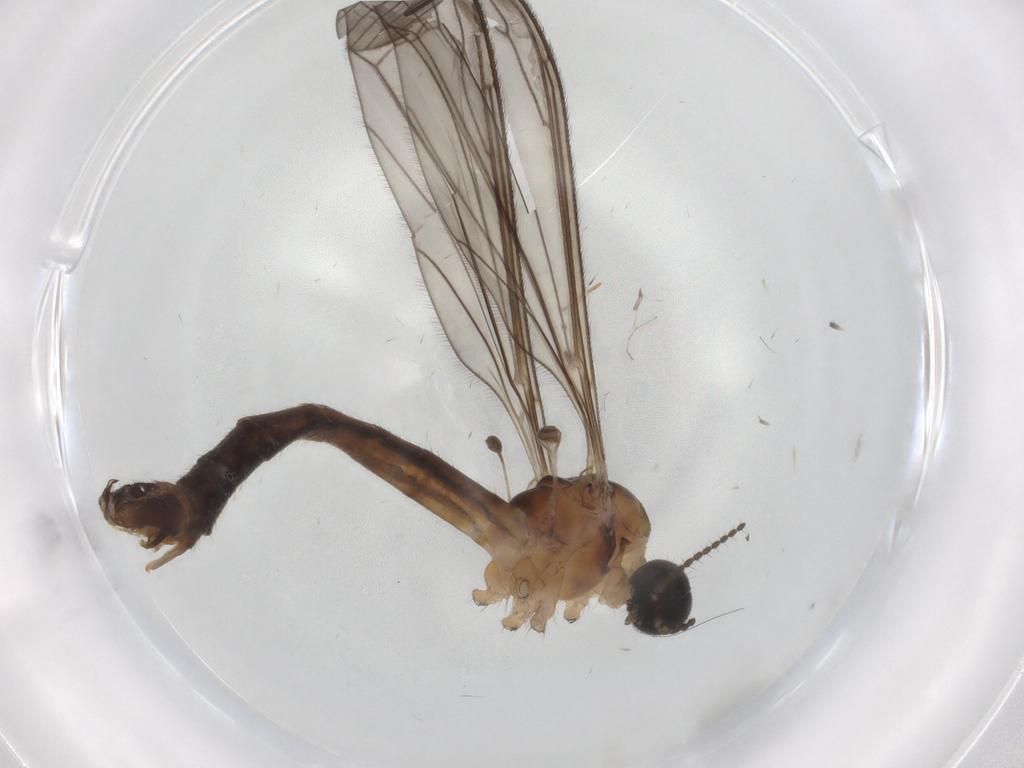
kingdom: Animalia
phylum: Arthropoda
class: Insecta
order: Diptera
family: Limoniidae
